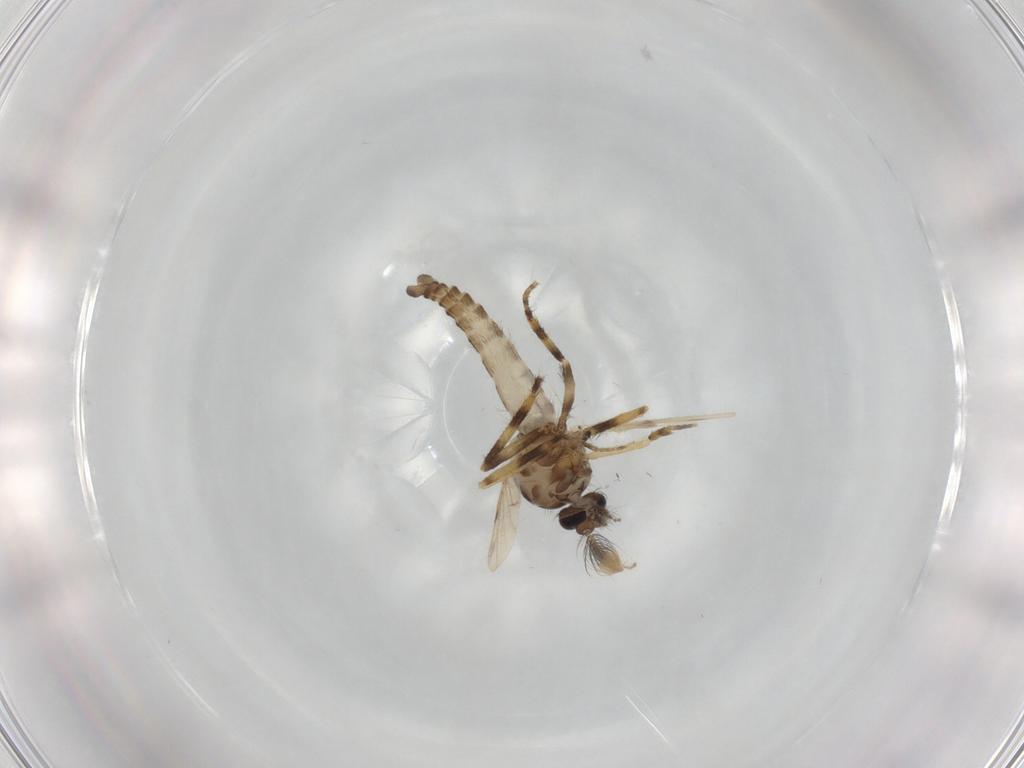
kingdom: Animalia
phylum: Arthropoda
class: Insecta
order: Diptera
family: Ceratopogonidae
